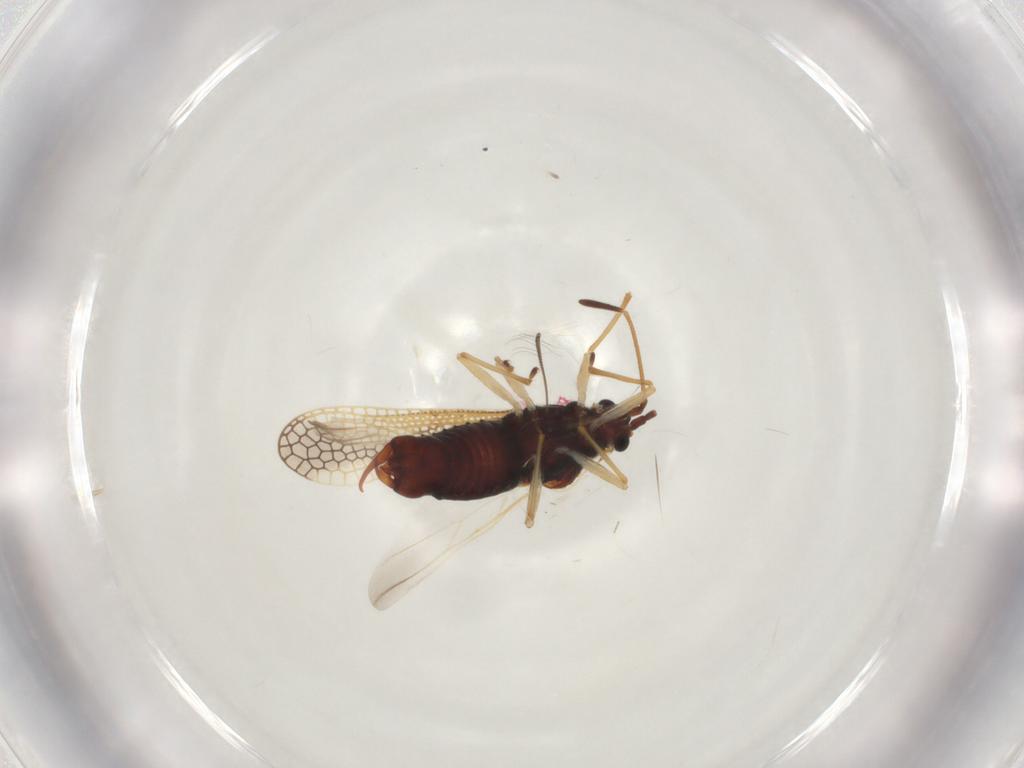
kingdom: Animalia
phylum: Arthropoda
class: Insecta
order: Hemiptera
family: Tingidae
